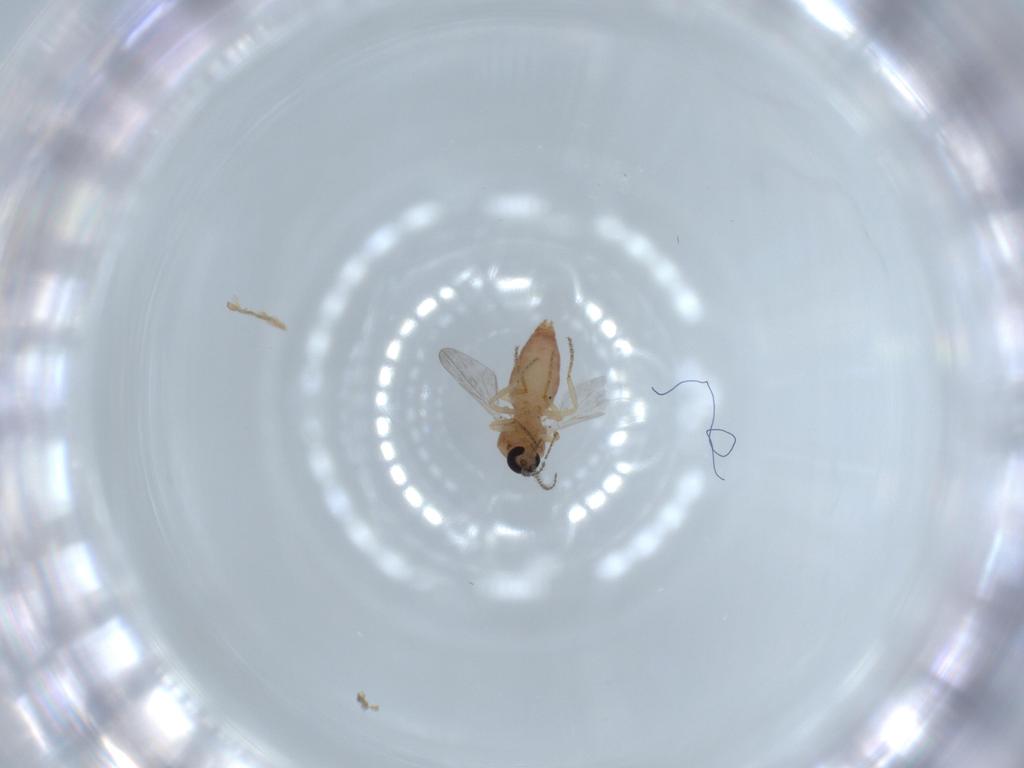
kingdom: Animalia
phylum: Arthropoda
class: Insecta
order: Diptera
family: Ceratopogonidae
